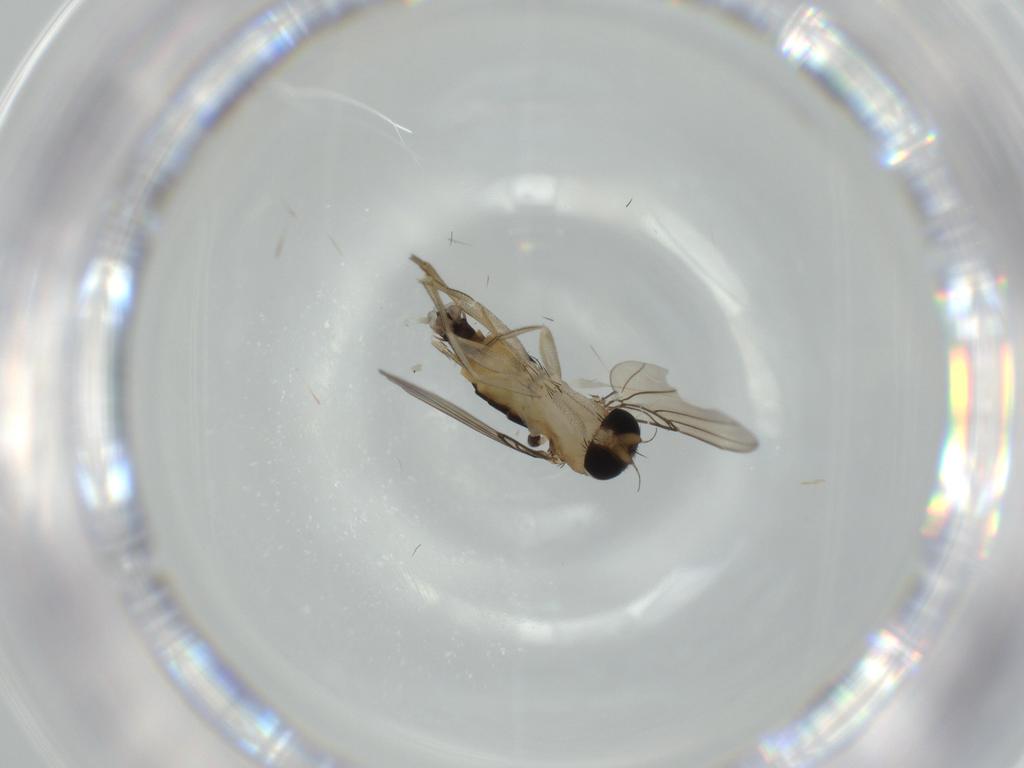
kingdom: Animalia
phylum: Arthropoda
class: Insecta
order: Diptera
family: Phoridae
